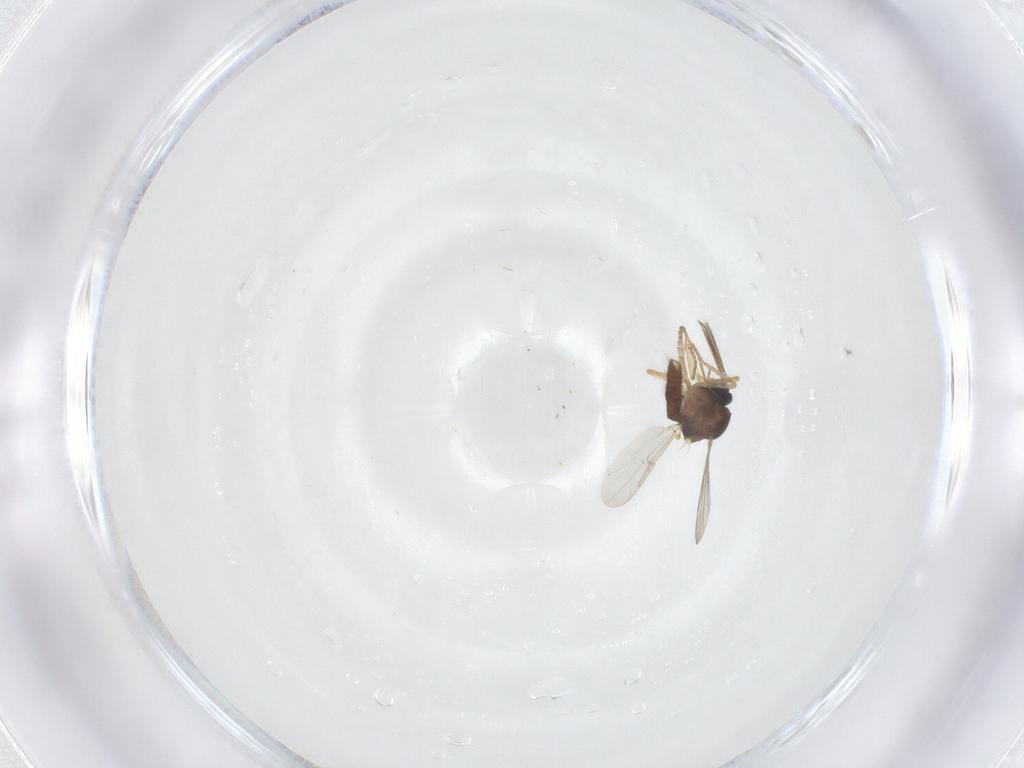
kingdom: Animalia
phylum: Arthropoda
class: Insecta
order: Diptera
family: Ceratopogonidae
